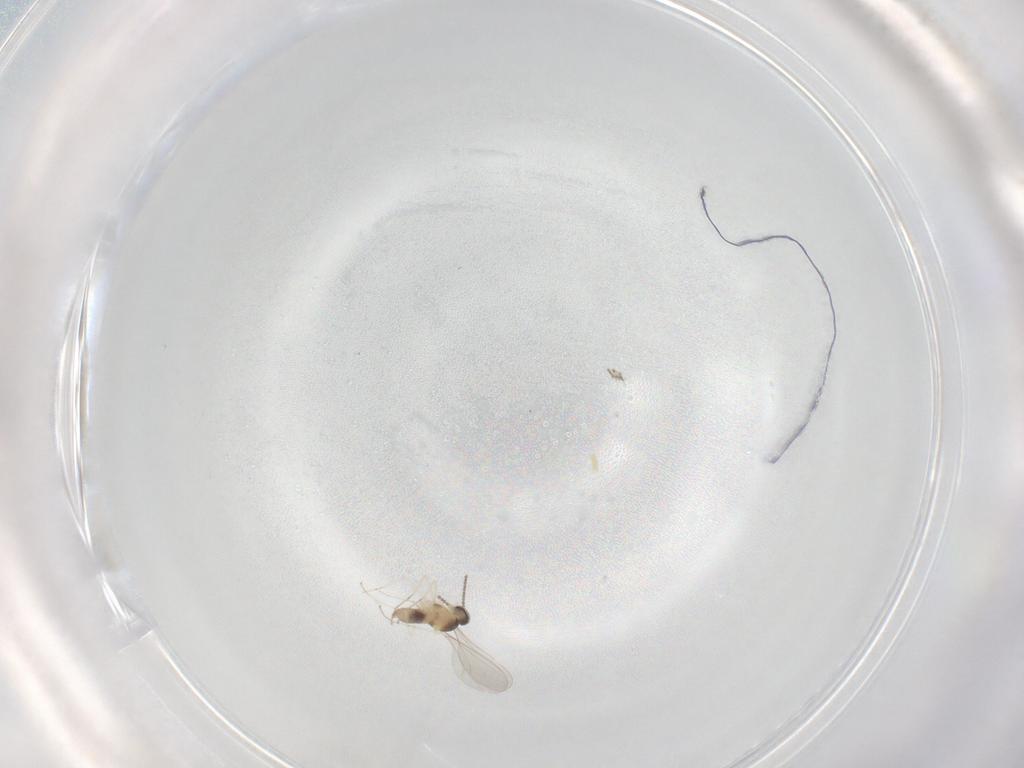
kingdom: Animalia
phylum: Arthropoda
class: Insecta
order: Diptera
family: Cecidomyiidae
